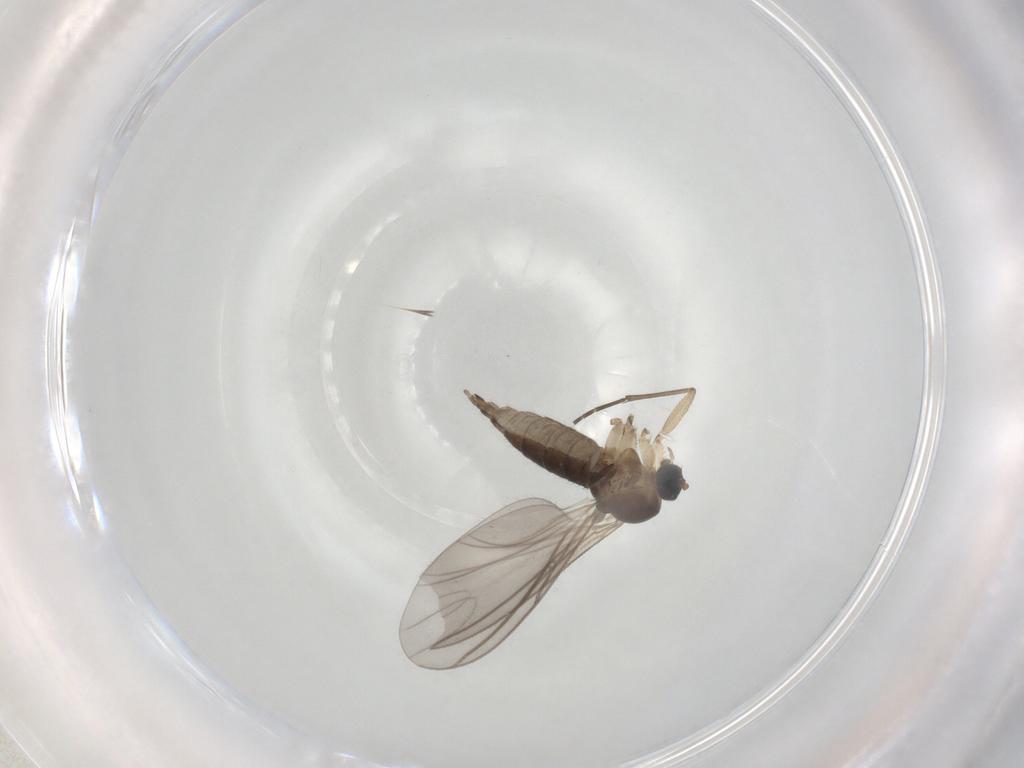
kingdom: Animalia
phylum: Arthropoda
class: Insecta
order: Diptera
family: Sciaridae
